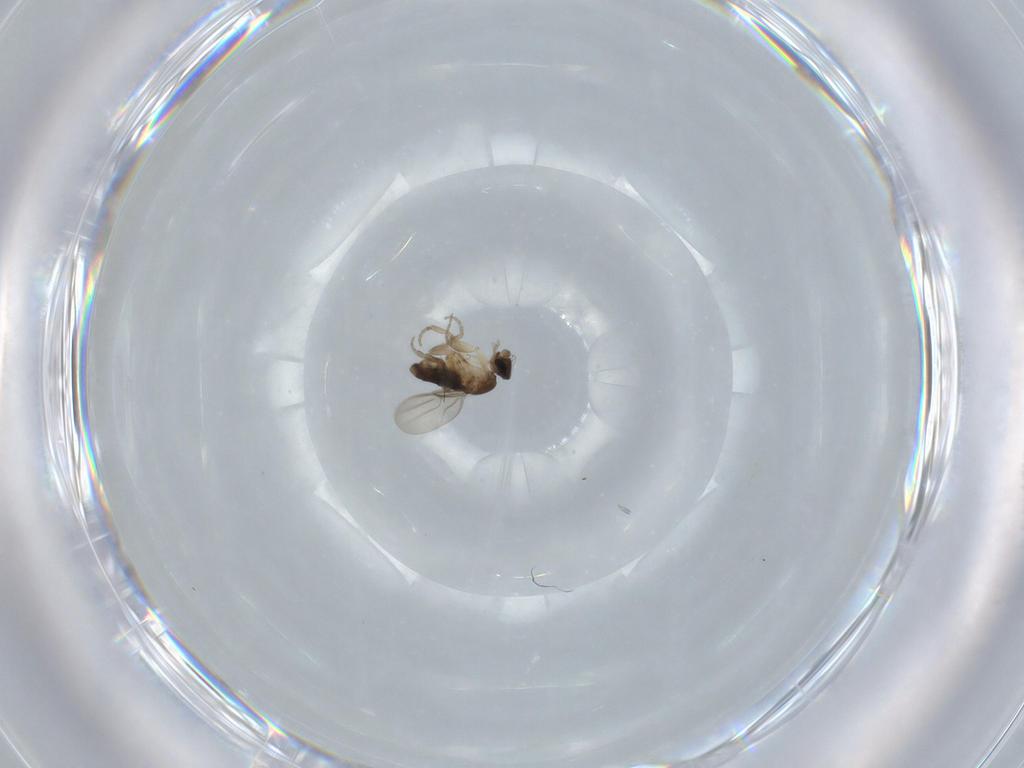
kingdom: Animalia
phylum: Arthropoda
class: Insecta
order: Diptera
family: Phoridae
